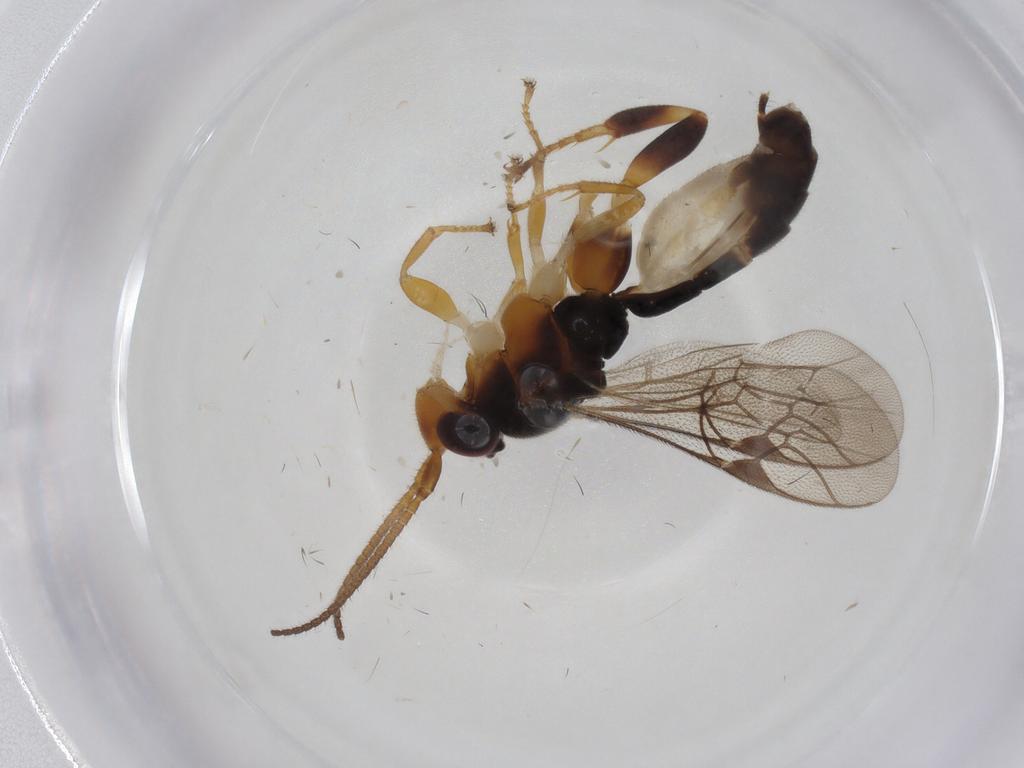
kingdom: Animalia
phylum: Arthropoda
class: Insecta
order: Hymenoptera
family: Ichneumonidae
